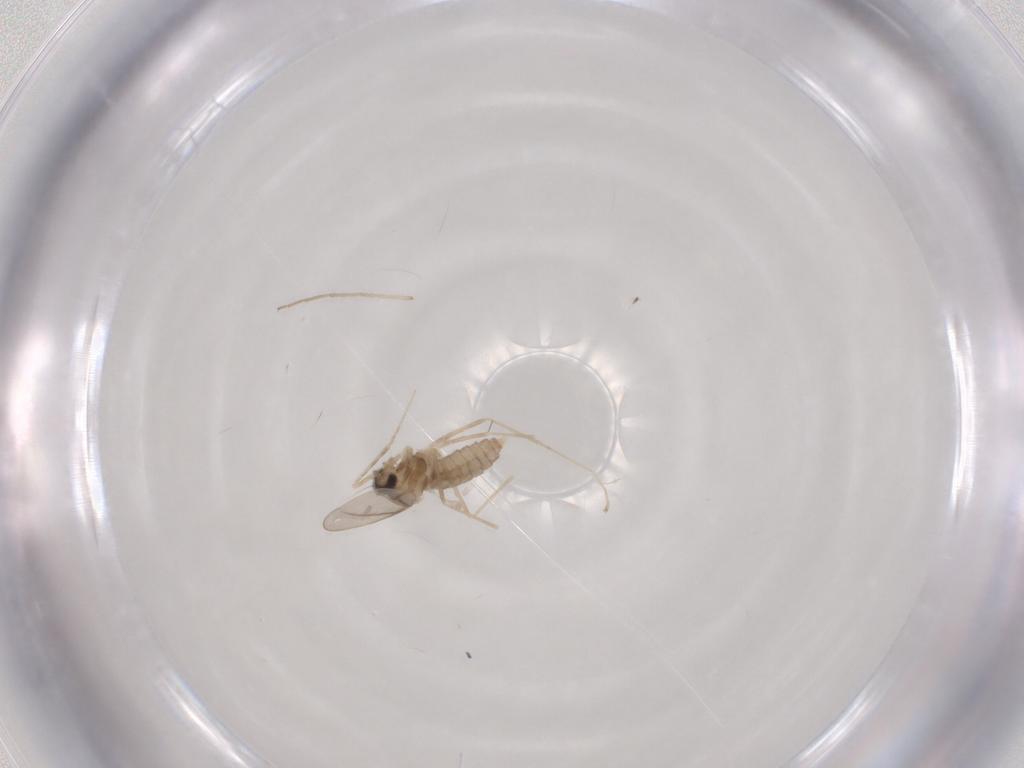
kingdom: Animalia
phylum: Arthropoda
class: Insecta
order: Diptera
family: Cecidomyiidae
